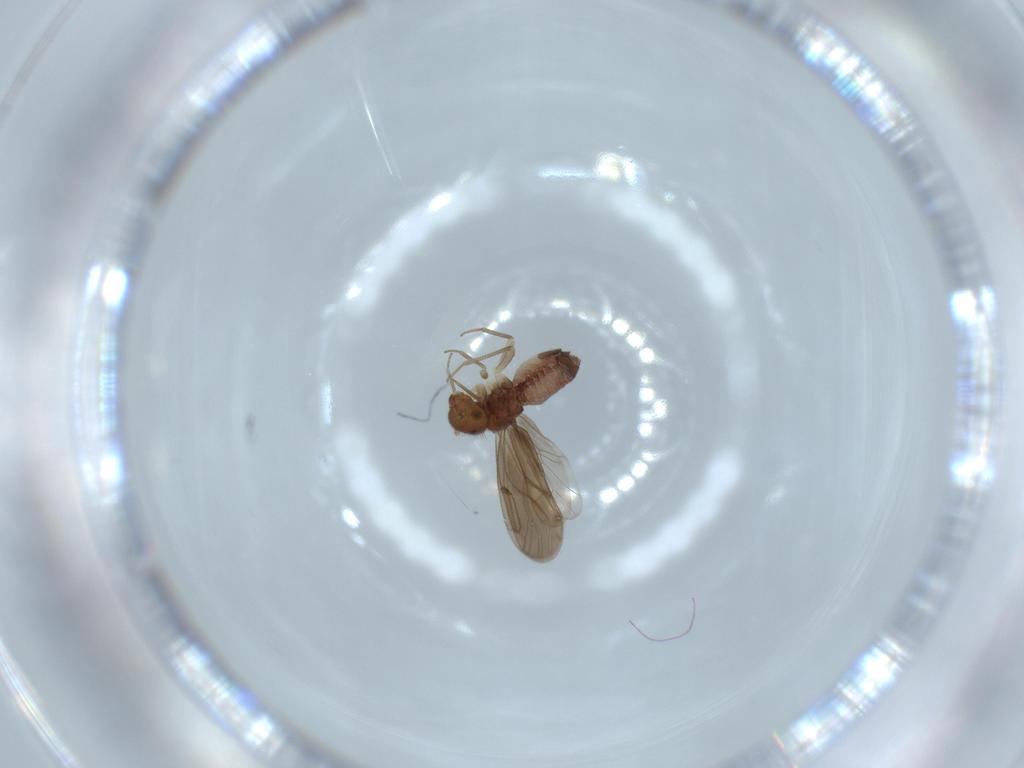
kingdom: Animalia
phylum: Arthropoda
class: Insecta
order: Psocodea
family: Ectopsocidae
